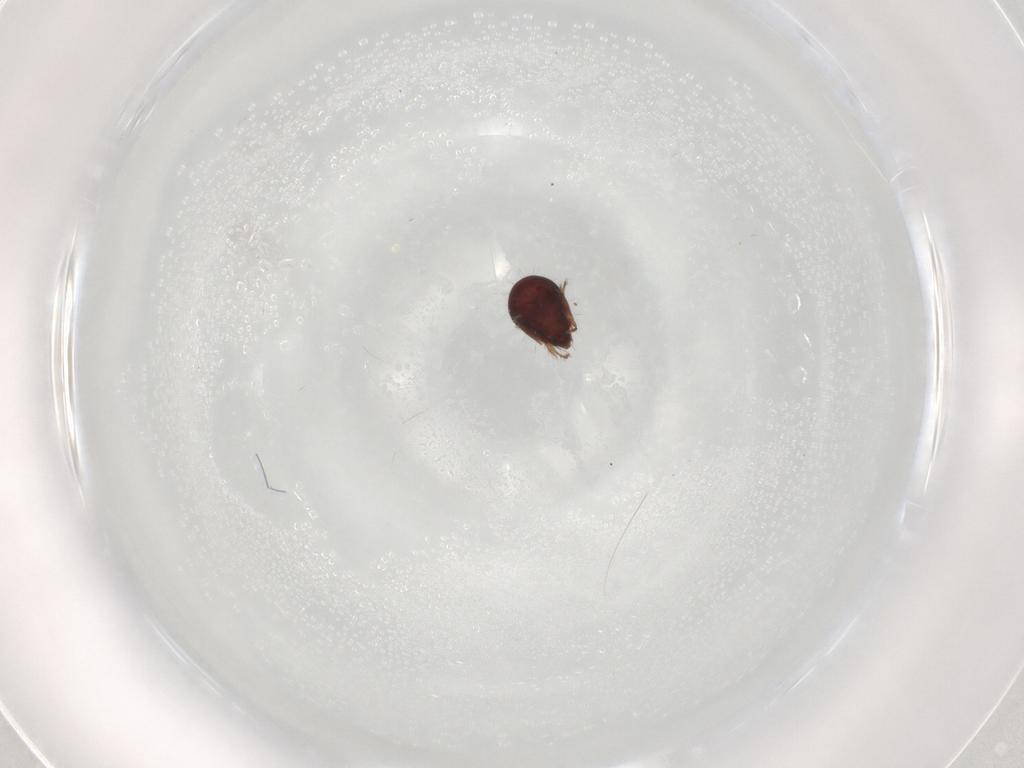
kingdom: Animalia
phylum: Arthropoda
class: Arachnida
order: Sarcoptiformes
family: Humerobatidae
